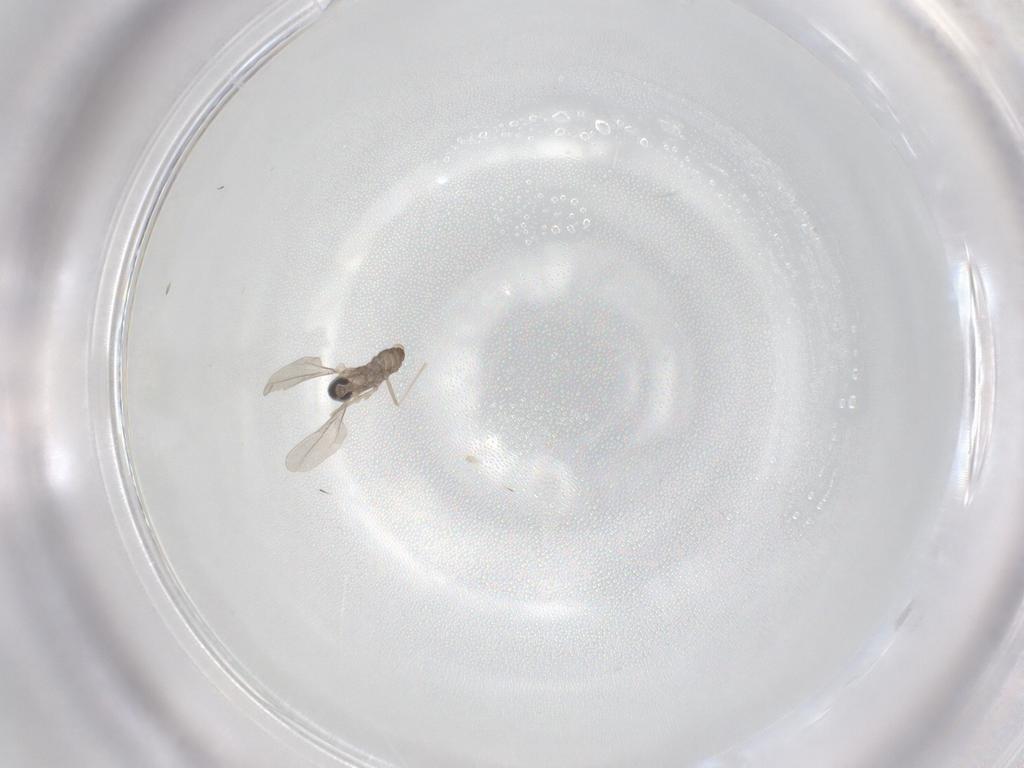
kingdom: Animalia
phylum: Arthropoda
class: Insecta
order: Diptera
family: Cecidomyiidae
